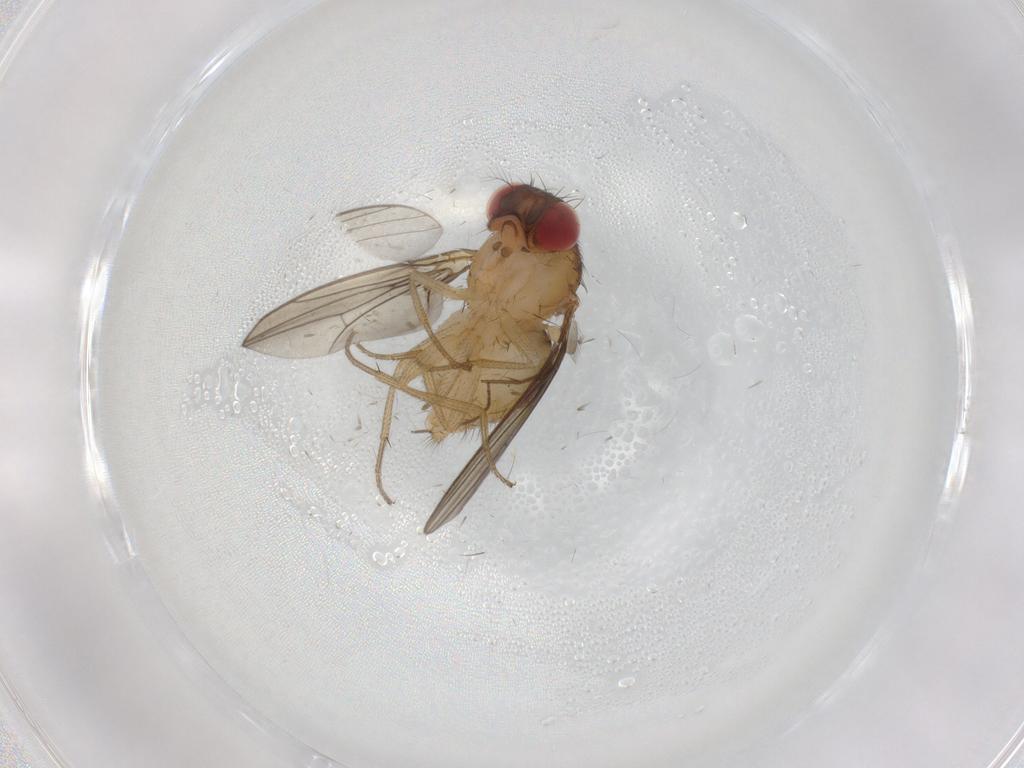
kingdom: Animalia
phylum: Arthropoda
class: Insecta
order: Diptera
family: Drosophilidae
